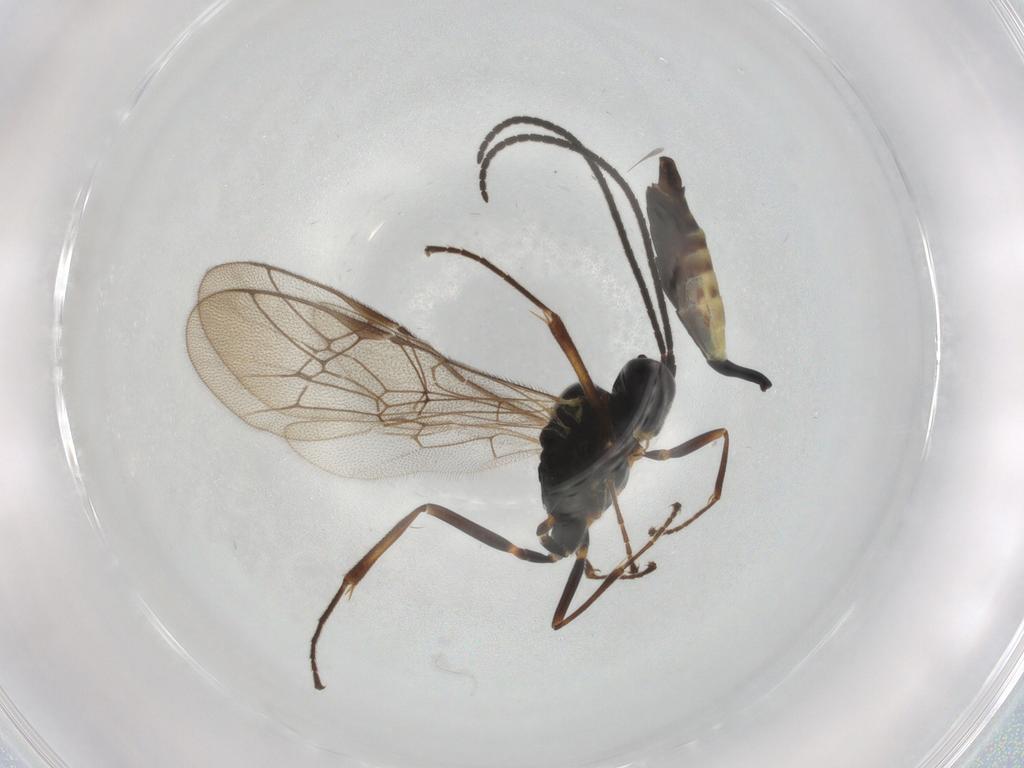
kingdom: Animalia
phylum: Arthropoda
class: Insecta
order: Hymenoptera
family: Ichneumonidae
